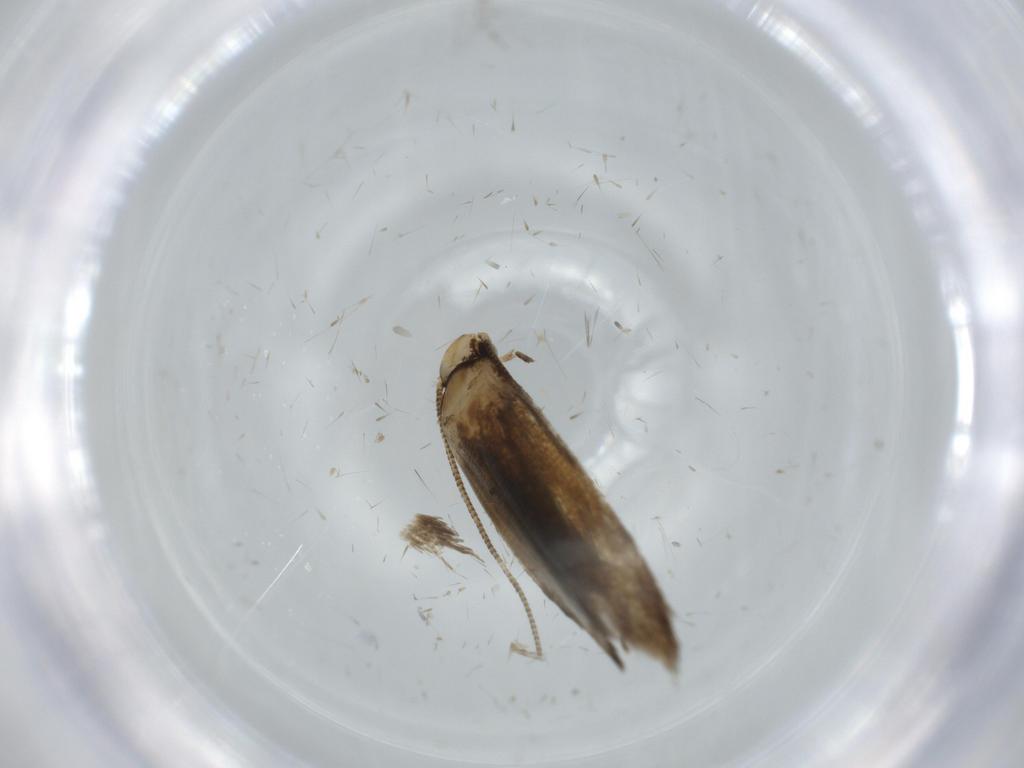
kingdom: Animalia
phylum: Arthropoda
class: Insecta
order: Lepidoptera
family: Tineidae
